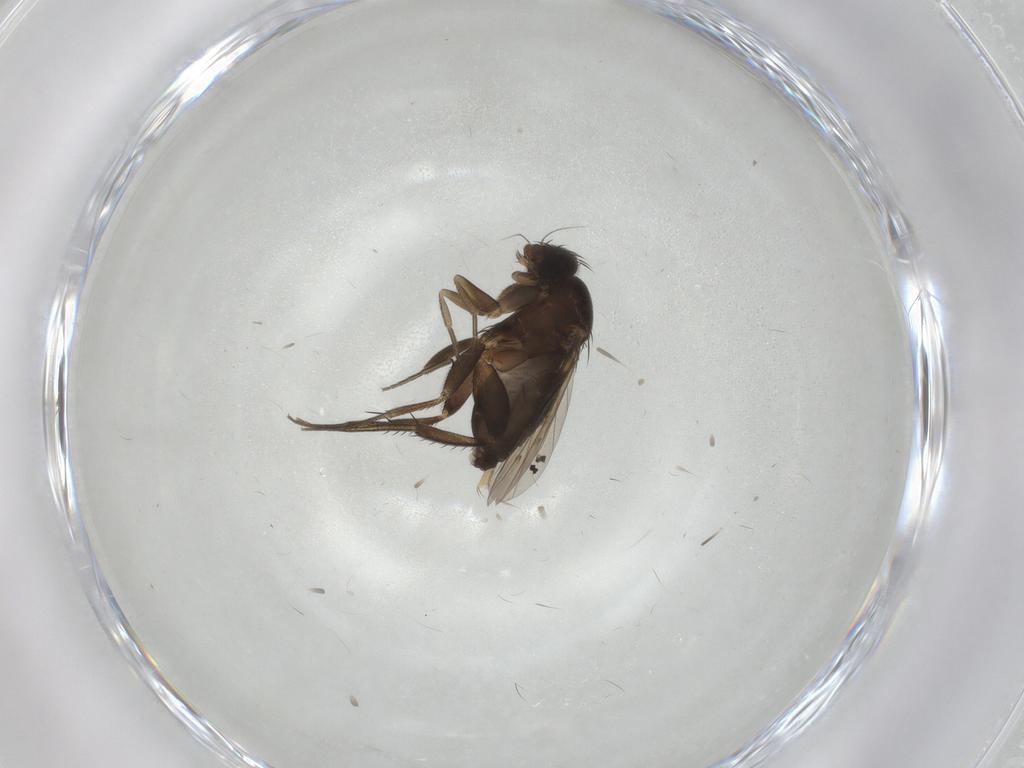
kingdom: Animalia
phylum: Arthropoda
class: Insecta
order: Diptera
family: Phoridae
